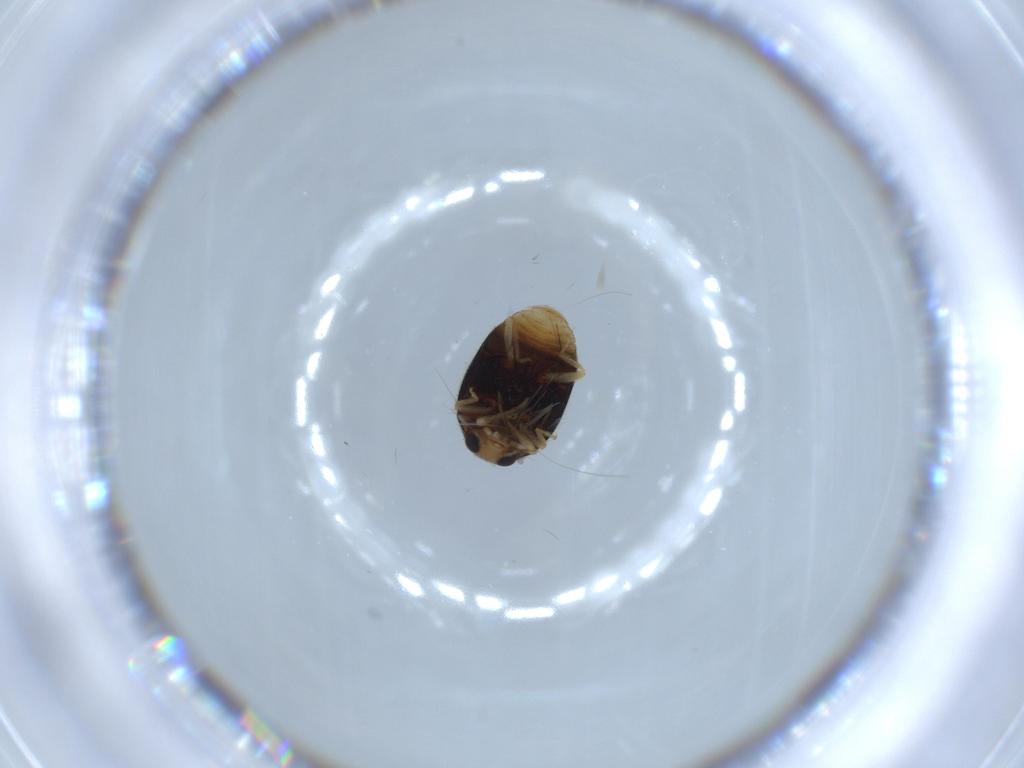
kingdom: Animalia
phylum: Arthropoda
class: Insecta
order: Coleoptera
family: Coccinellidae
